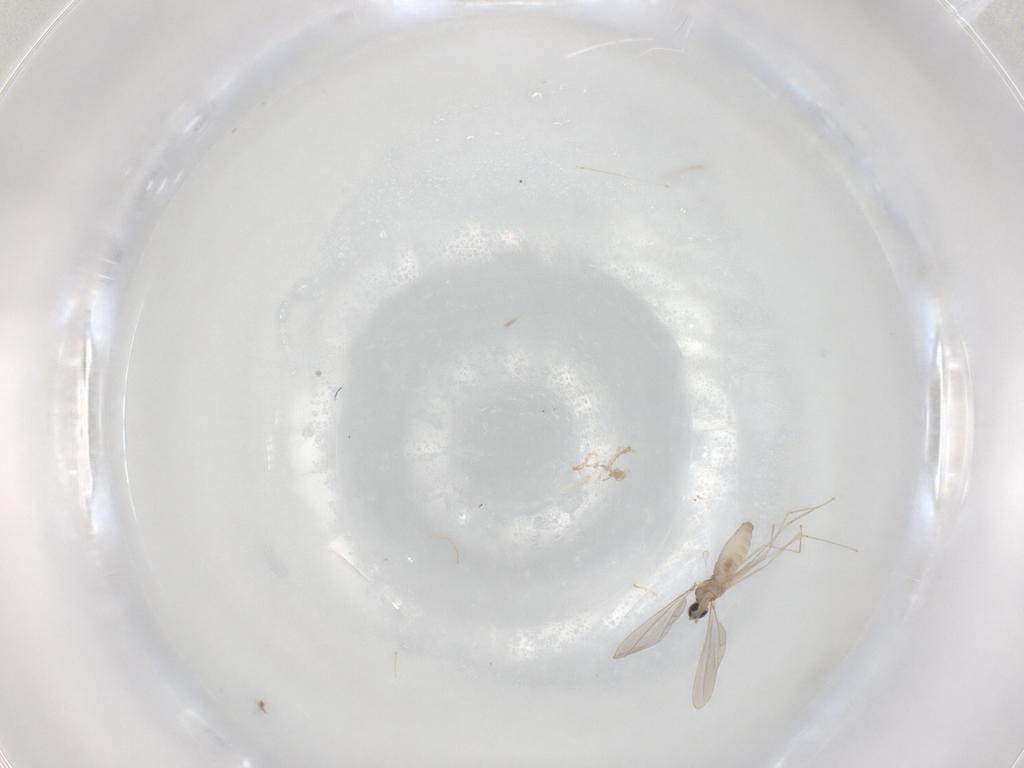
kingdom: Animalia
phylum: Arthropoda
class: Insecta
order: Diptera
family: Cecidomyiidae
